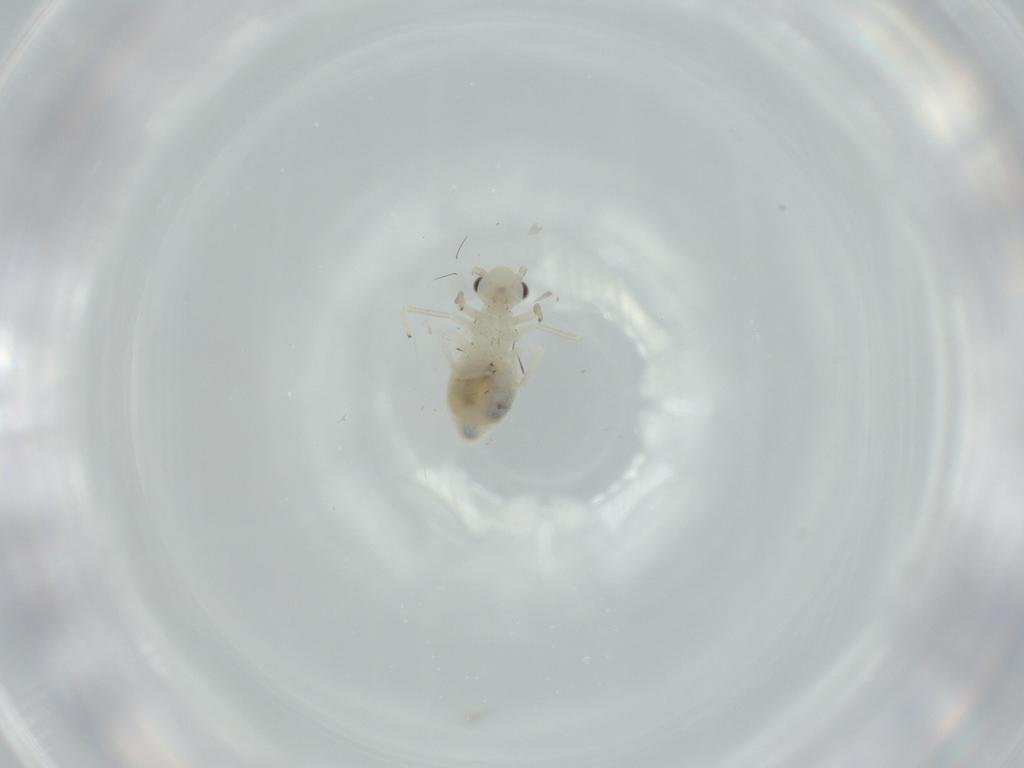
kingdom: Animalia
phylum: Arthropoda
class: Insecta
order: Psocodea
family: Caeciliusidae
